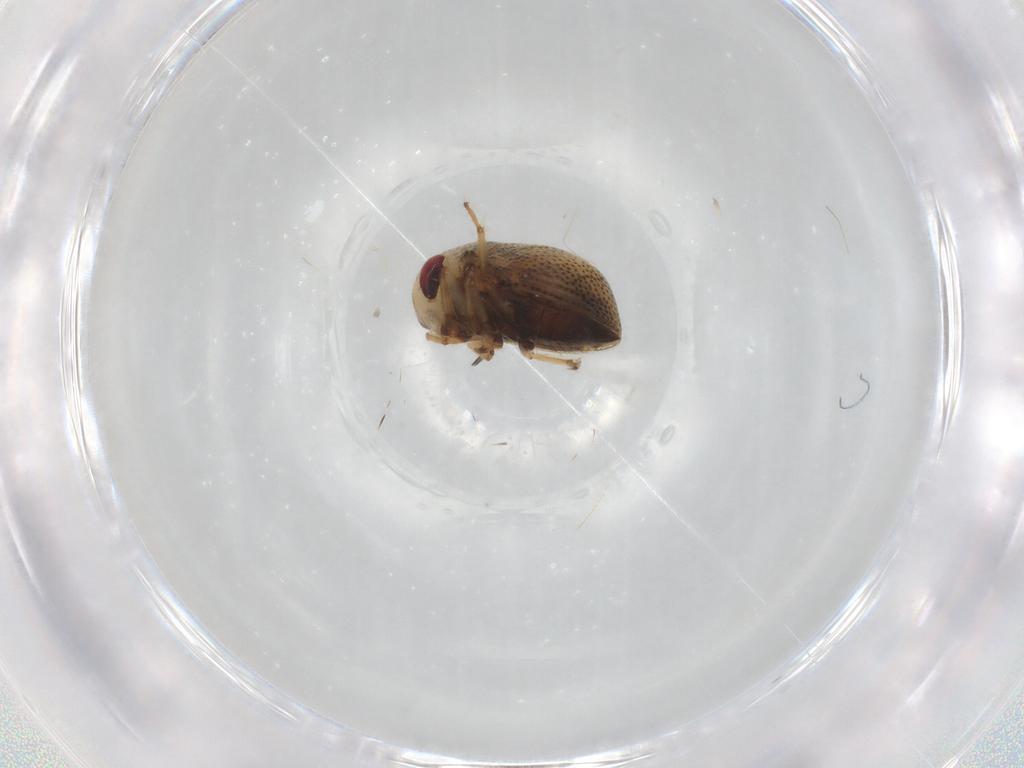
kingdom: Animalia
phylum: Arthropoda
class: Insecta
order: Hemiptera
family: Pleidae
